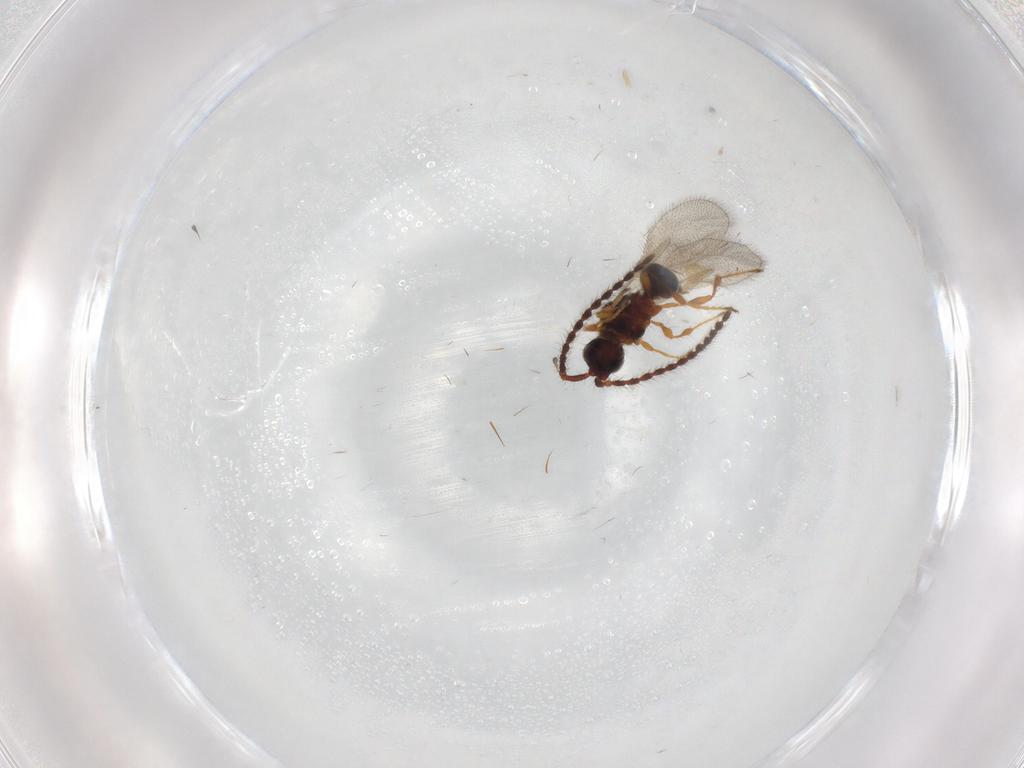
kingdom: Animalia
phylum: Arthropoda
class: Insecta
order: Hymenoptera
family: Diapriidae
